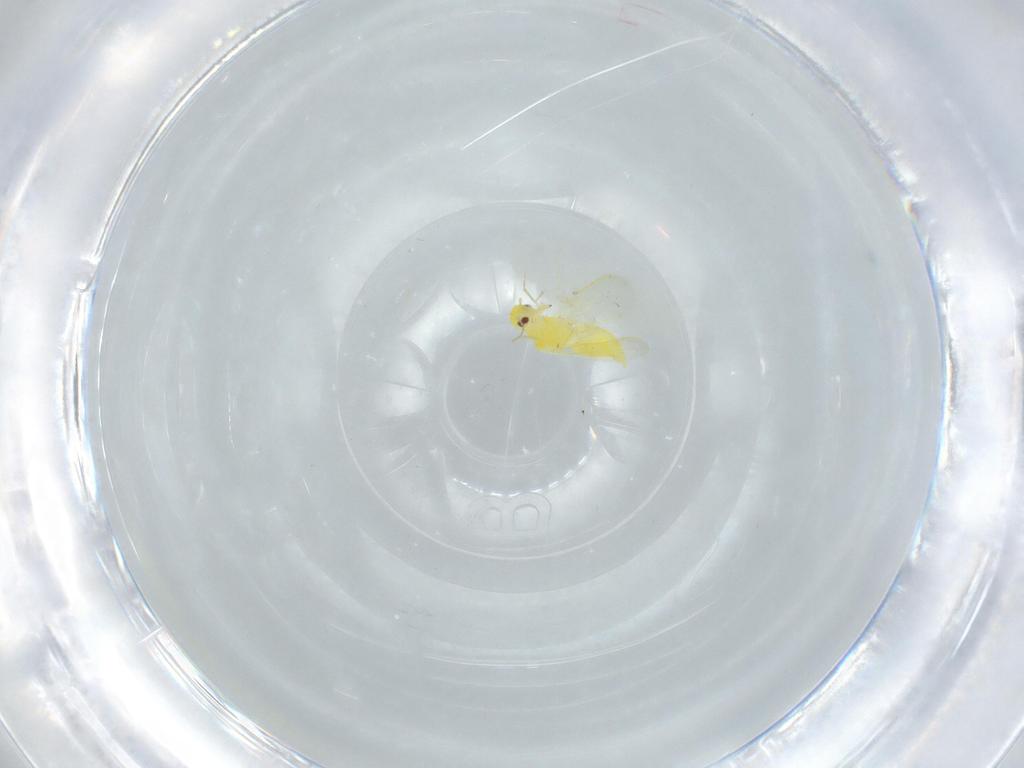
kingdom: Animalia
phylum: Arthropoda
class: Insecta
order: Hemiptera
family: Aleyrodidae
